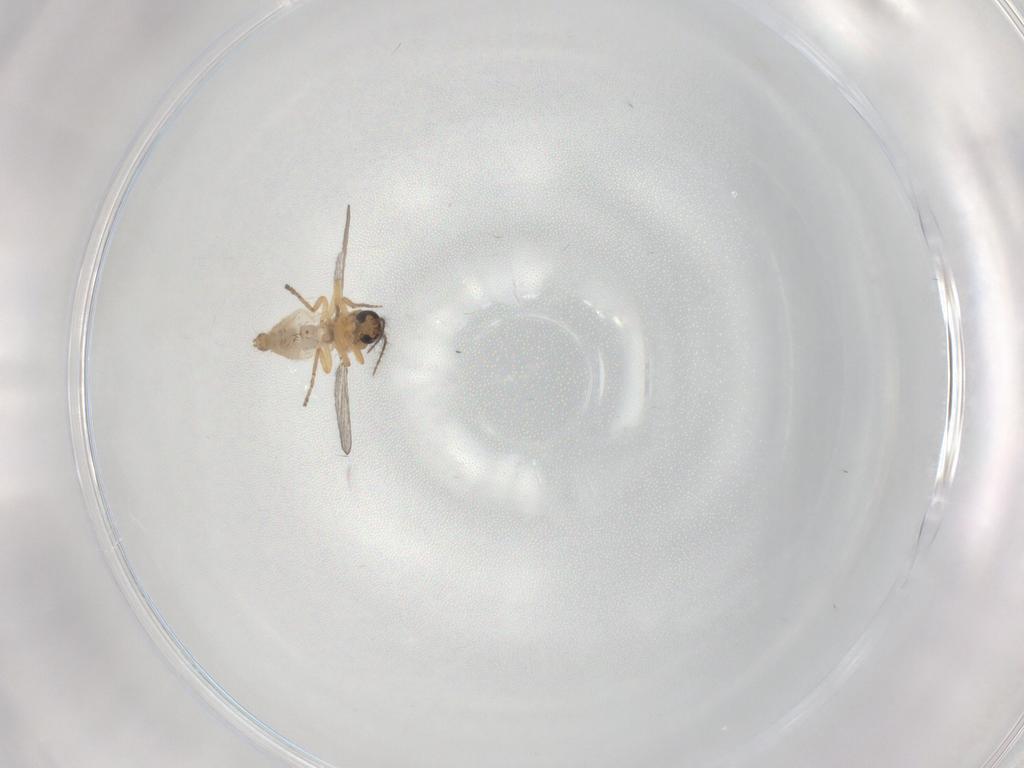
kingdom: Animalia
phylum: Arthropoda
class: Insecta
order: Diptera
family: Ceratopogonidae
